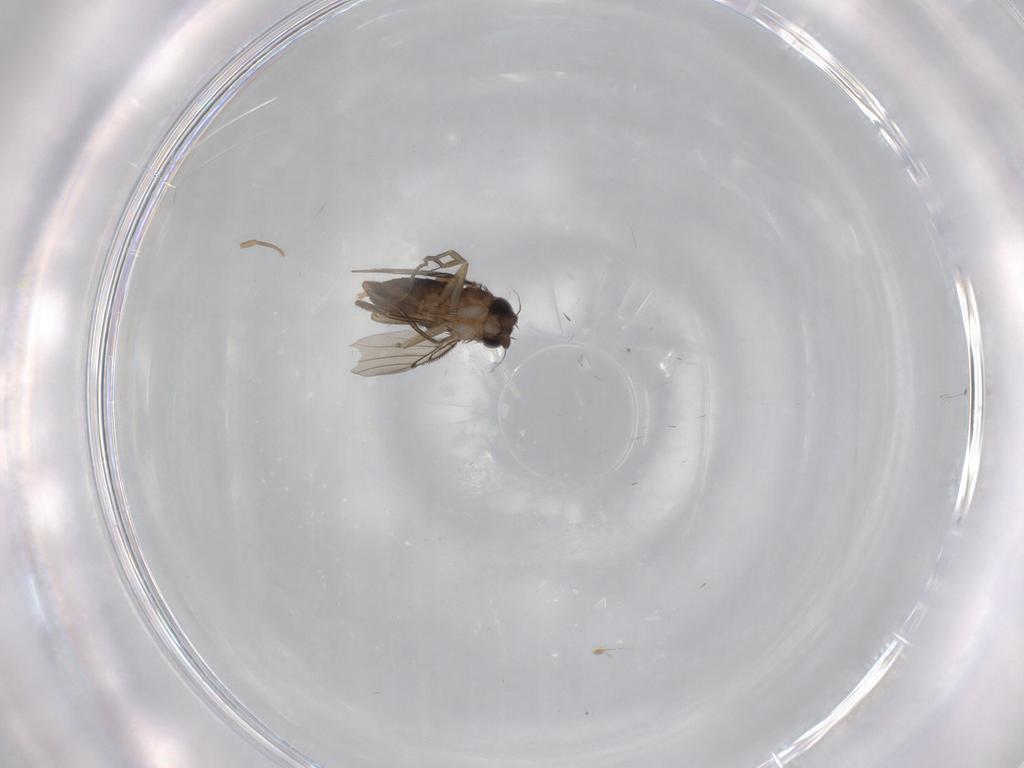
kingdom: Animalia
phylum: Arthropoda
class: Insecta
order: Diptera
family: Phoridae
